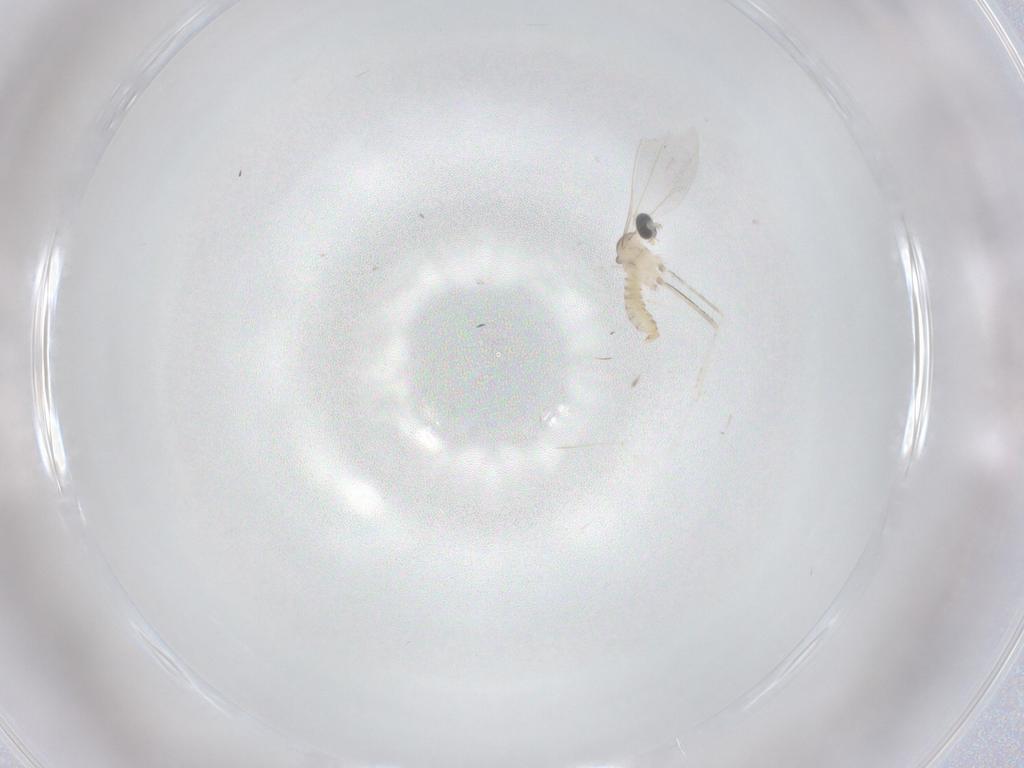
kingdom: Animalia
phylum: Arthropoda
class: Insecta
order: Diptera
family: Cecidomyiidae
